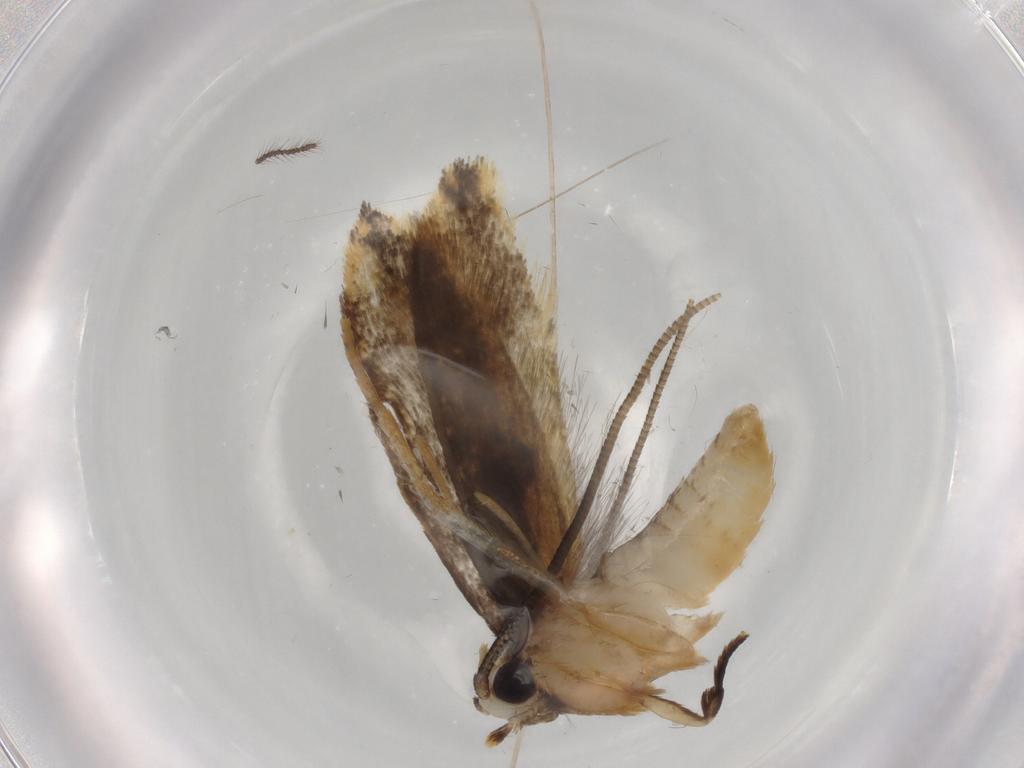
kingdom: Animalia
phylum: Arthropoda
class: Insecta
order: Lepidoptera
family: Tineidae
